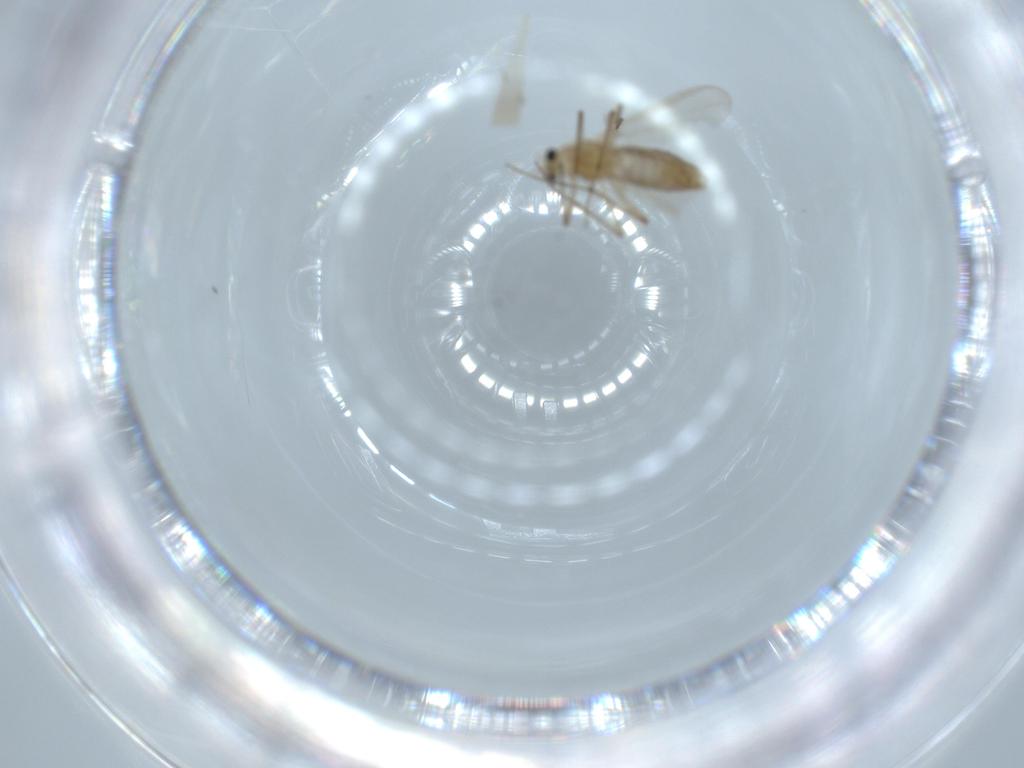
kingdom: Animalia
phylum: Arthropoda
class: Insecta
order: Diptera
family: Chironomidae
